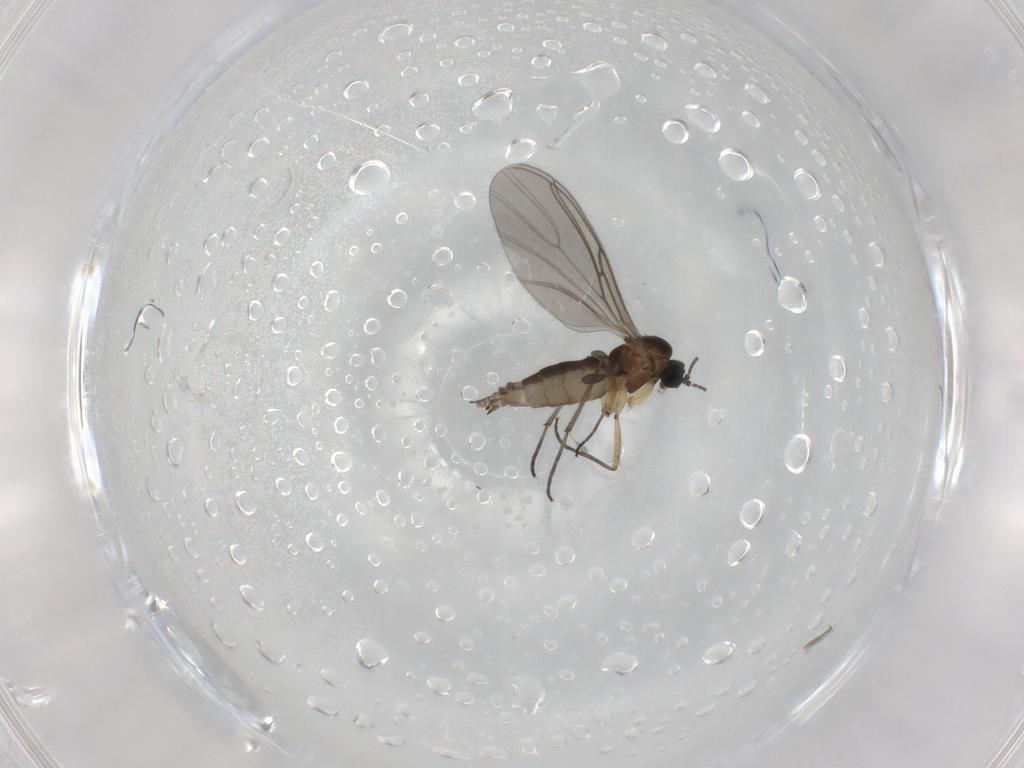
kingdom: Animalia
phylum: Arthropoda
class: Insecta
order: Diptera
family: Sciaridae
